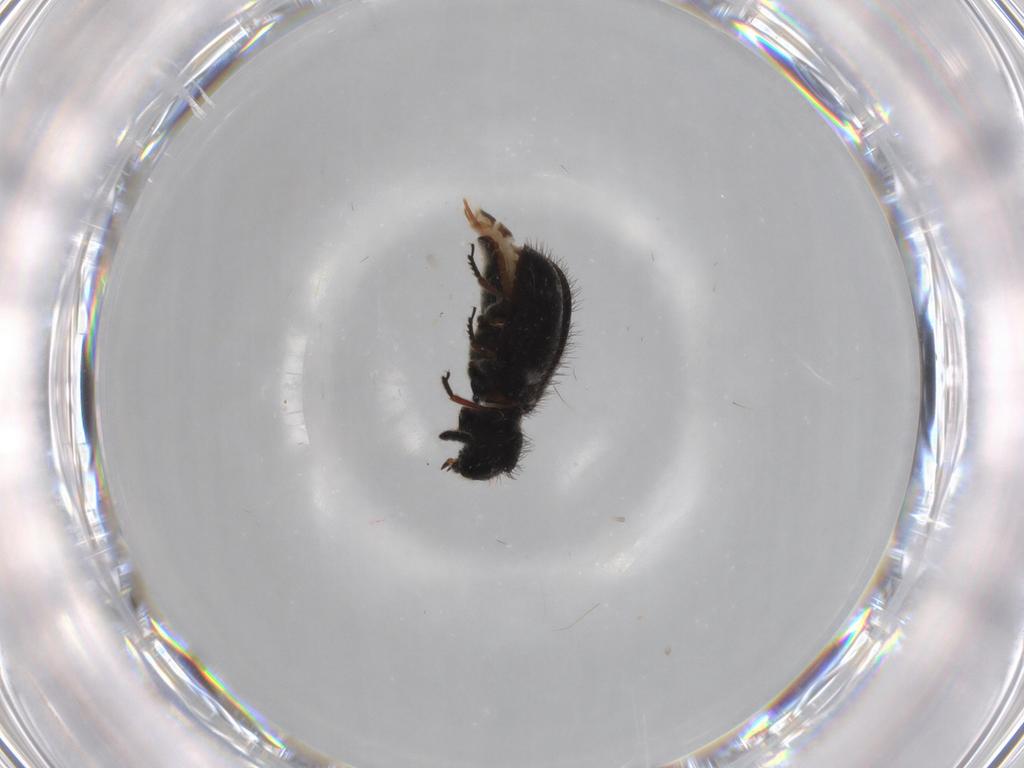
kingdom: Animalia
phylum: Arthropoda
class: Insecta
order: Coleoptera
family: Ptinidae
